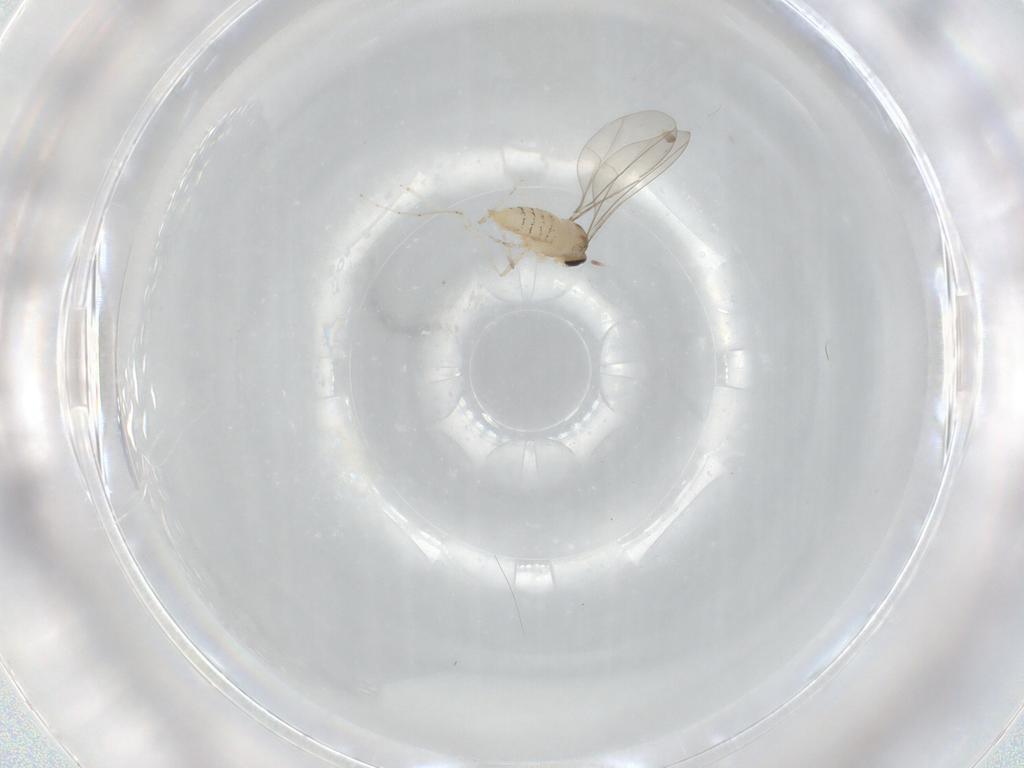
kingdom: Animalia
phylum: Arthropoda
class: Insecta
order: Diptera
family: Cecidomyiidae
